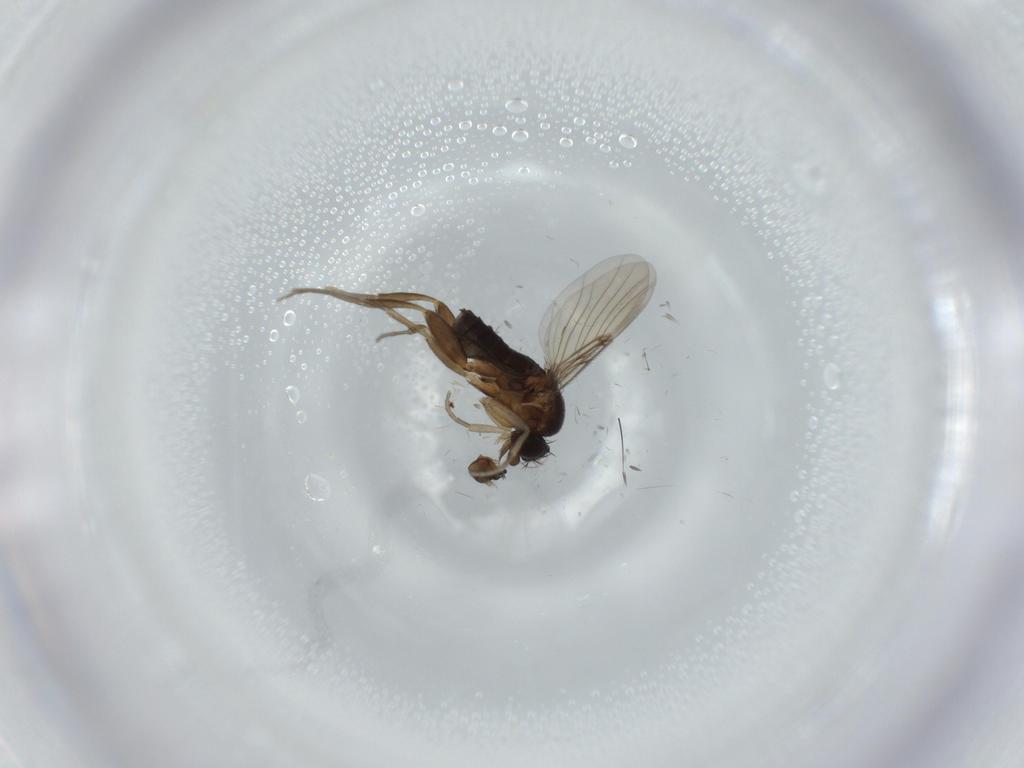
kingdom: Animalia
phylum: Arthropoda
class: Insecta
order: Diptera
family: Phoridae
